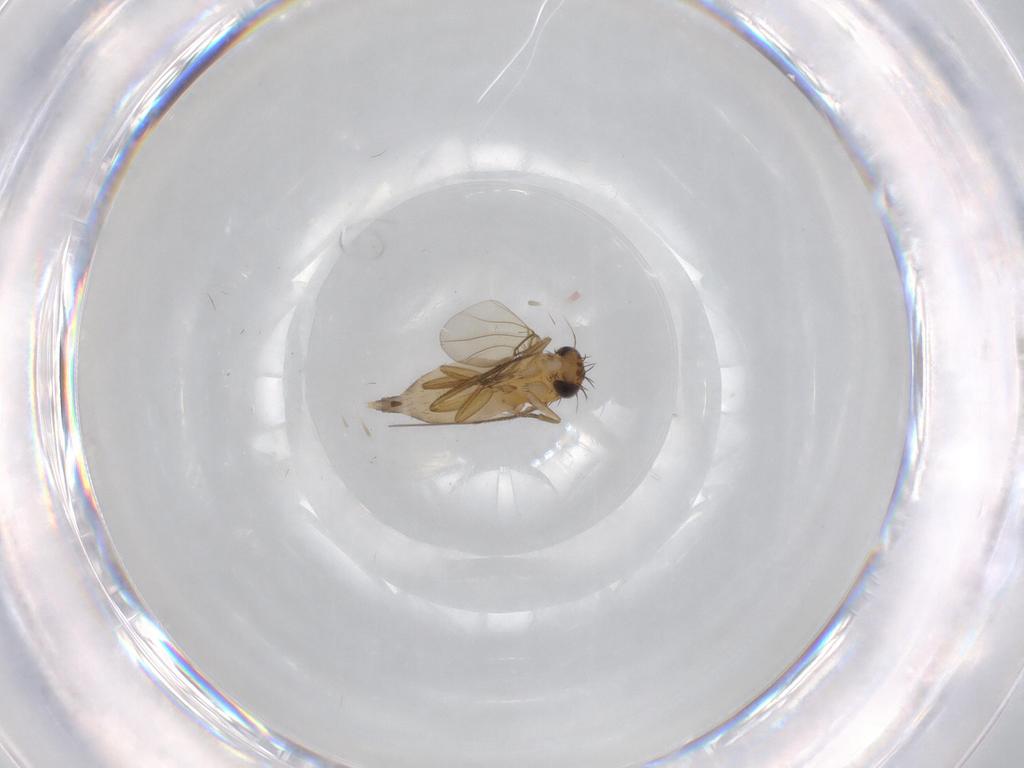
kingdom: Animalia
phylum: Arthropoda
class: Insecta
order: Diptera
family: Phoridae
